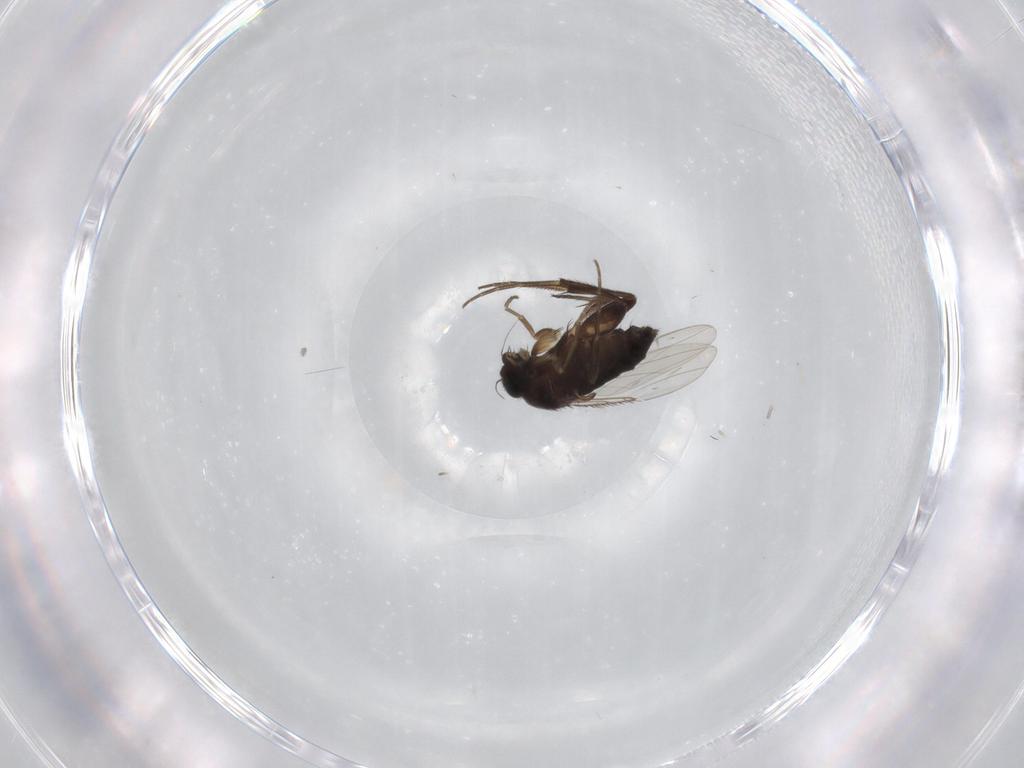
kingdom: Animalia
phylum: Arthropoda
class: Insecta
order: Diptera
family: Phoridae
